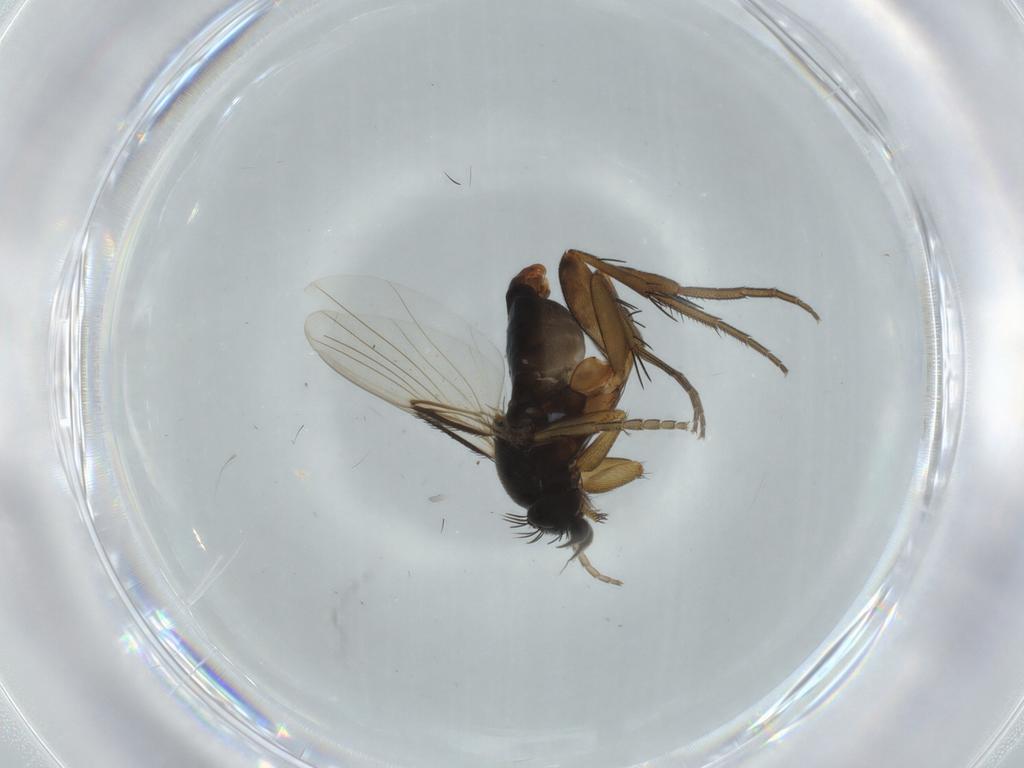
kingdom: Animalia
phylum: Arthropoda
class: Insecta
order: Diptera
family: Phoridae
